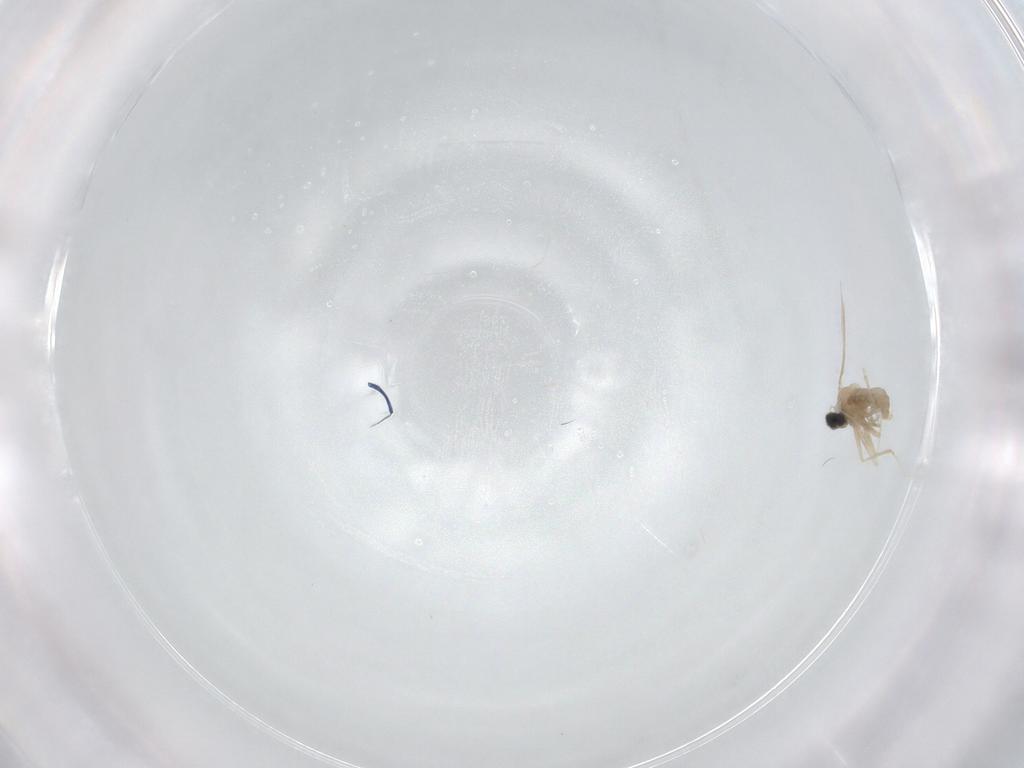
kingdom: Animalia
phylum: Arthropoda
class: Insecta
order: Diptera
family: Cecidomyiidae
